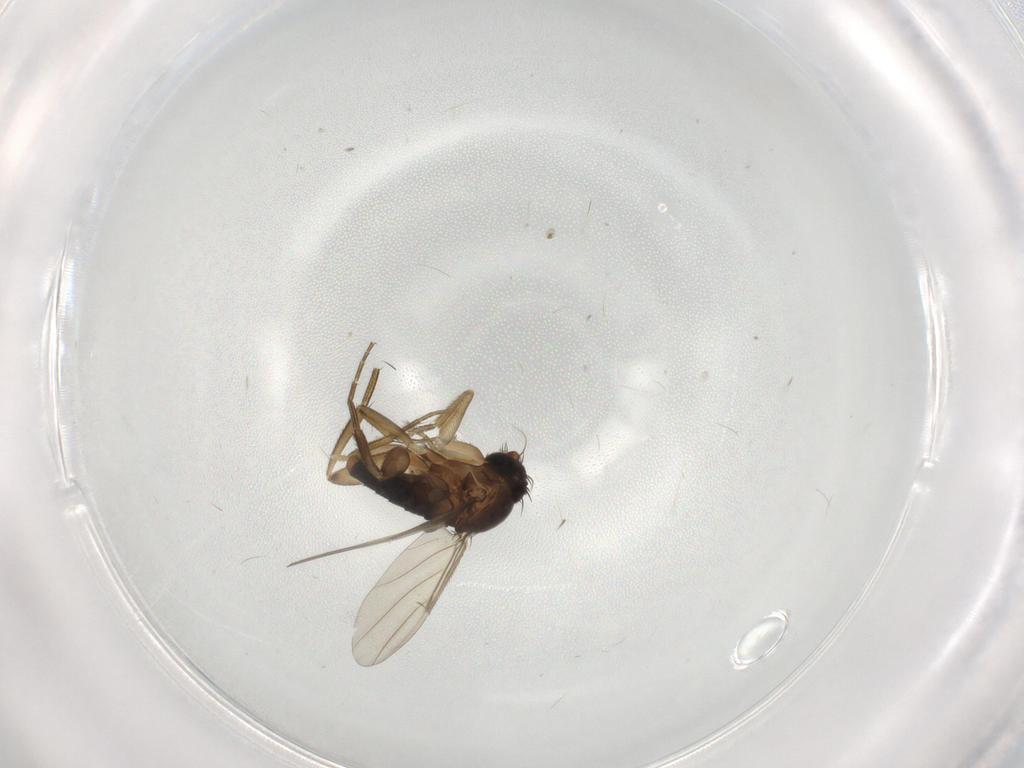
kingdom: Animalia
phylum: Arthropoda
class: Insecta
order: Diptera
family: Phoridae
